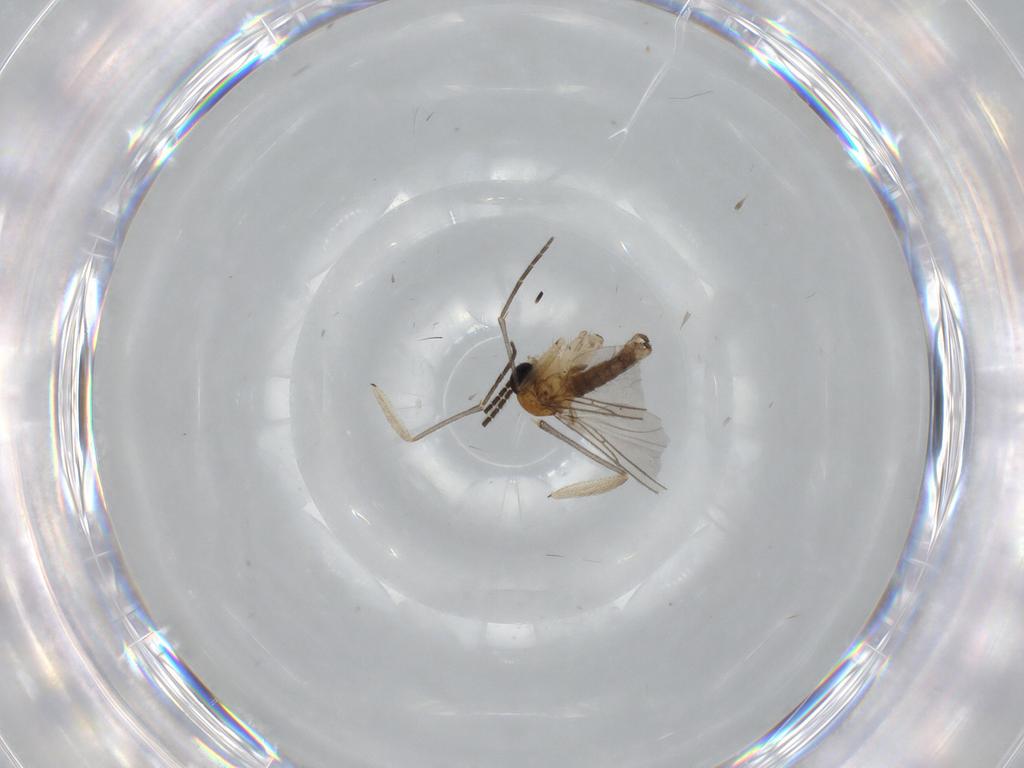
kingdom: Animalia
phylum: Arthropoda
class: Insecta
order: Diptera
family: Sciaridae
